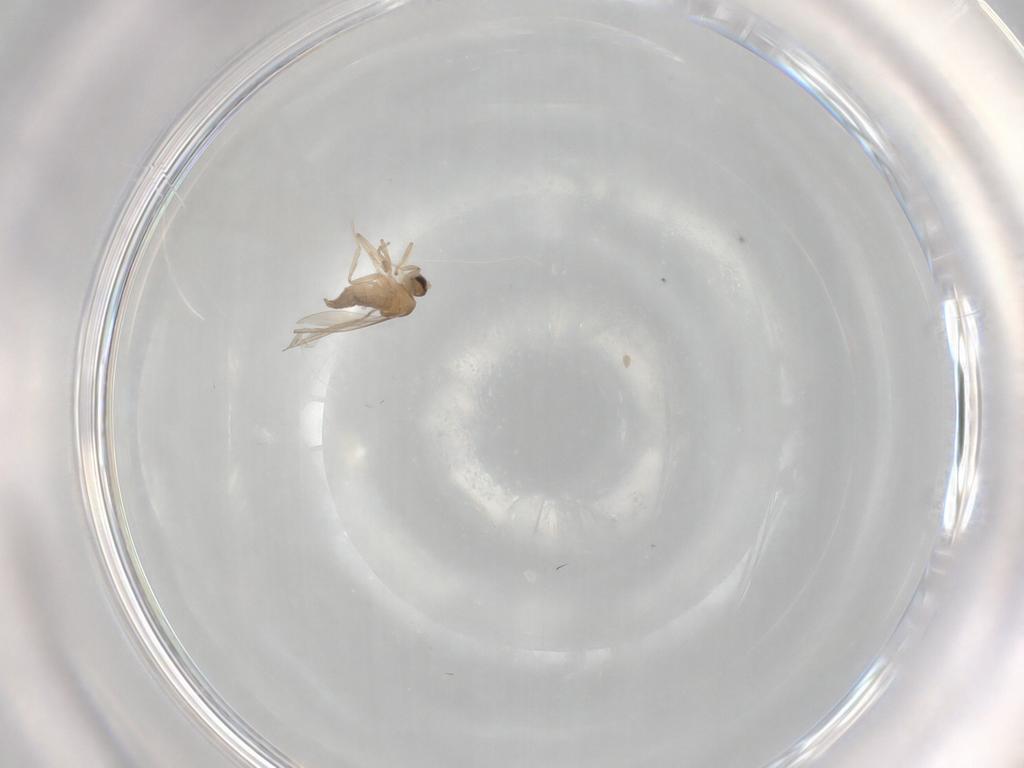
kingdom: Animalia
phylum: Arthropoda
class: Insecta
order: Diptera
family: Cecidomyiidae
